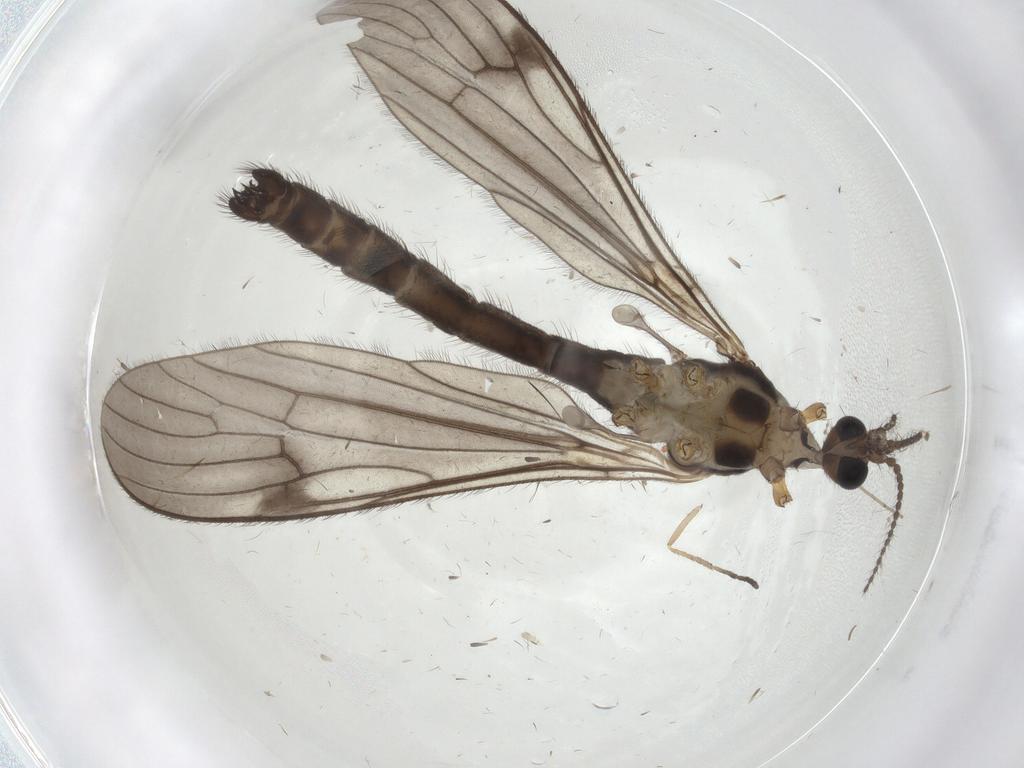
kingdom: Animalia
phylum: Arthropoda
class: Insecta
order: Diptera
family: Limoniidae
